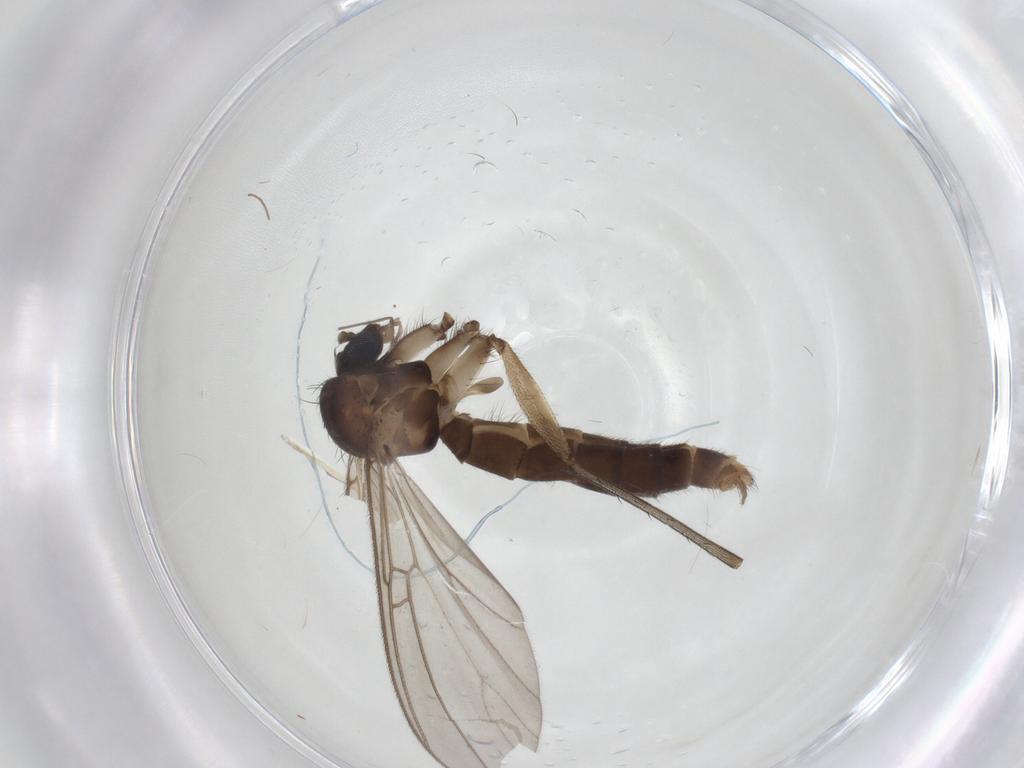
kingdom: Animalia
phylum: Arthropoda
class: Insecta
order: Diptera
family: Mycetophilidae
